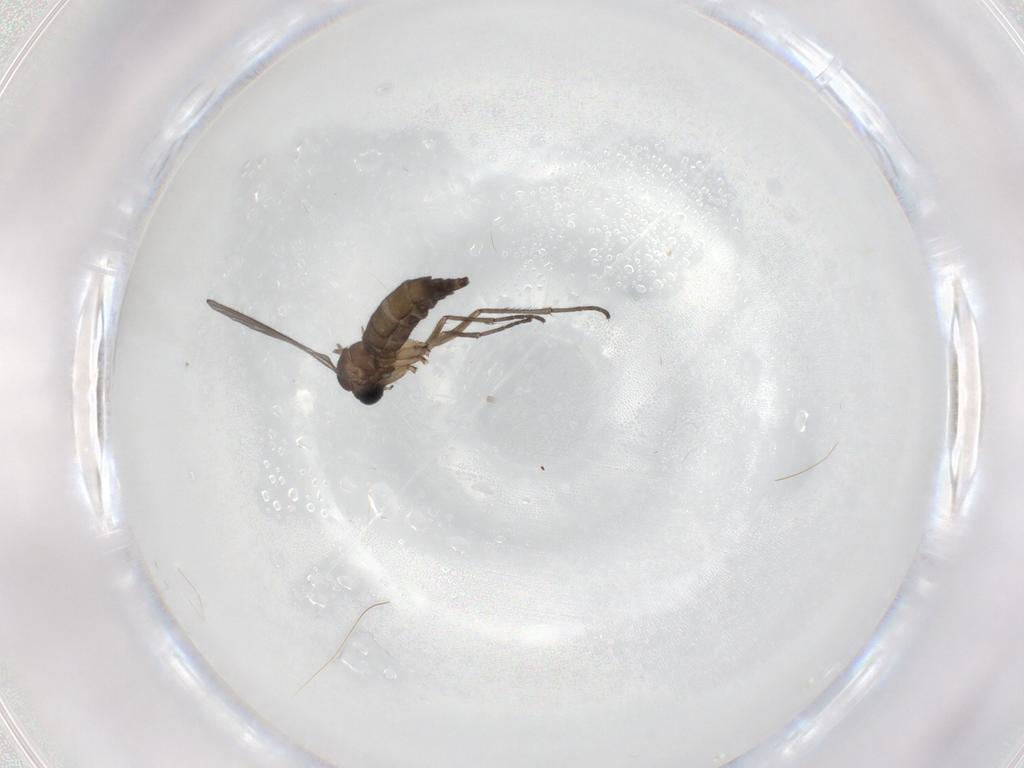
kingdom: Animalia
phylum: Arthropoda
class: Insecta
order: Diptera
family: Sciaridae
